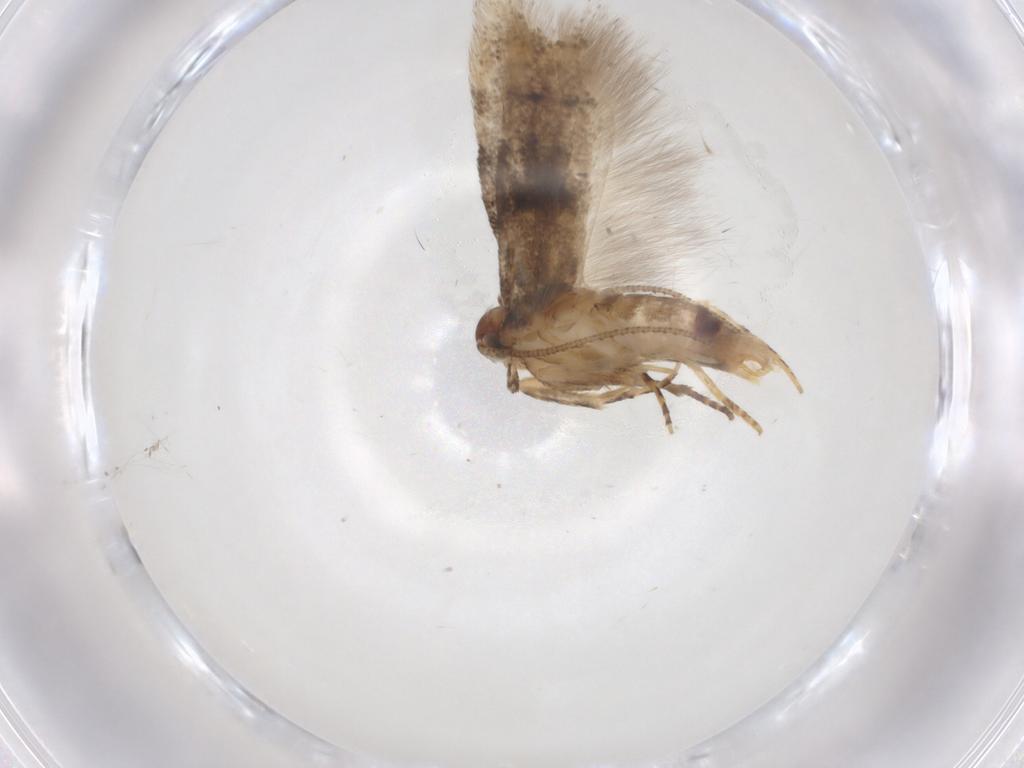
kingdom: Animalia
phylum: Arthropoda
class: Insecta
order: Lepidoptera
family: Gelechiidae
